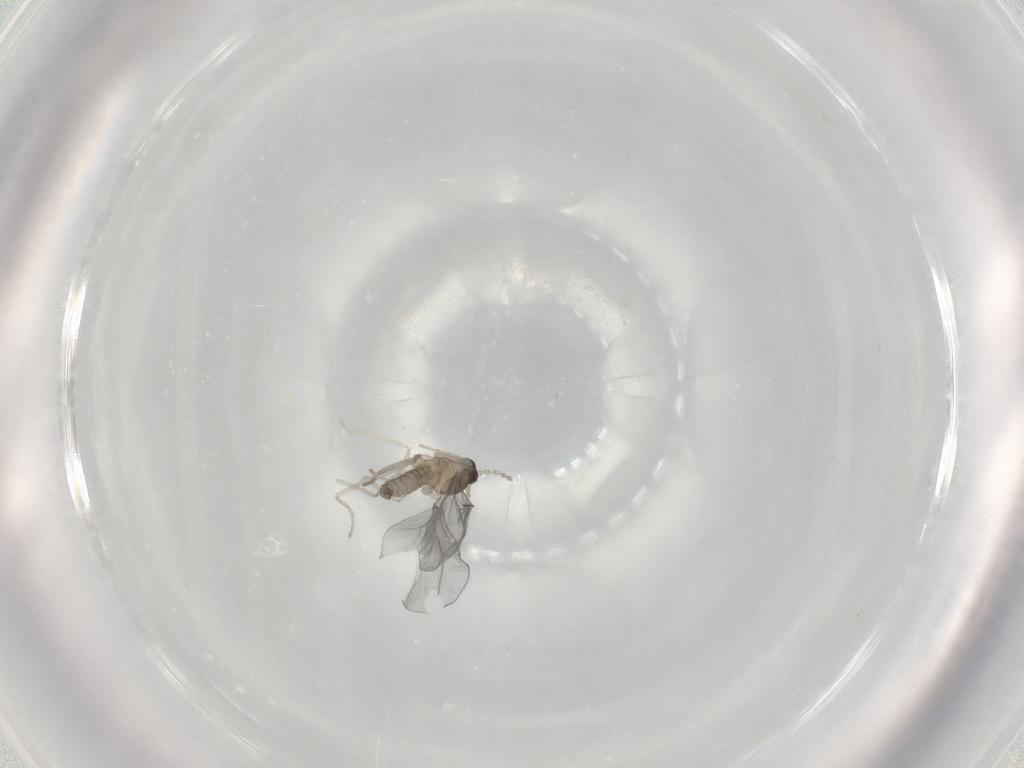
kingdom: Animalia
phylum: Arthropoda
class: Insecta
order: Diptera
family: Cecidomyiidae
